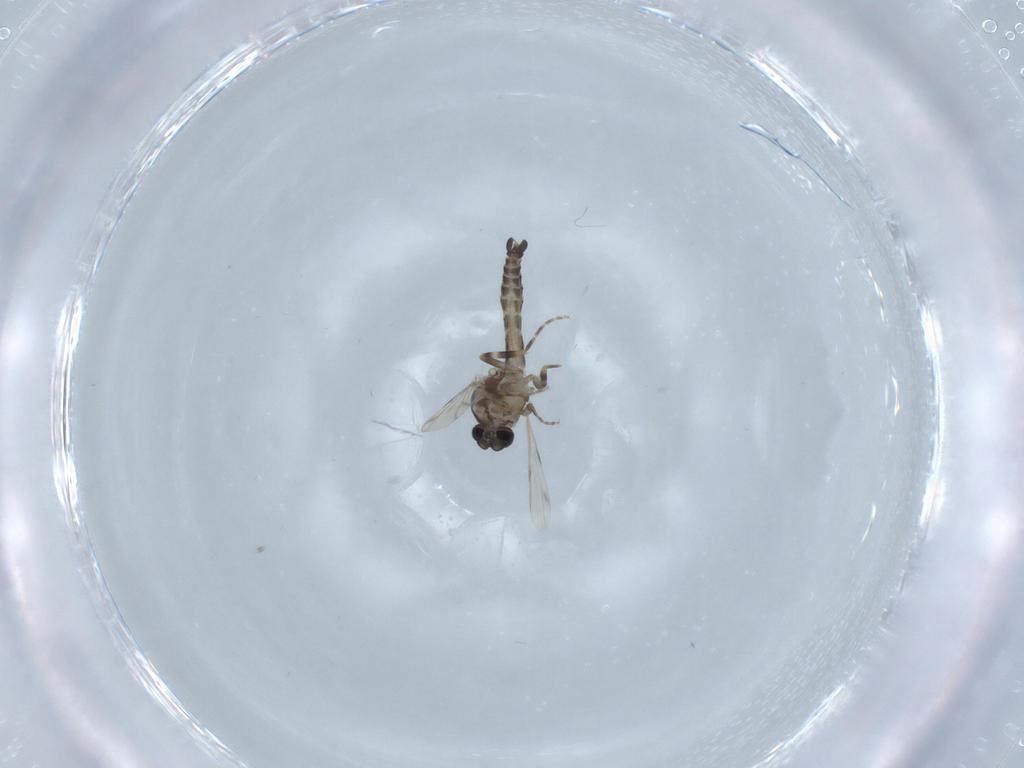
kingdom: Animalia
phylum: Arthropoda
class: Insecta
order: Diptera
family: Ceratopogonidae
